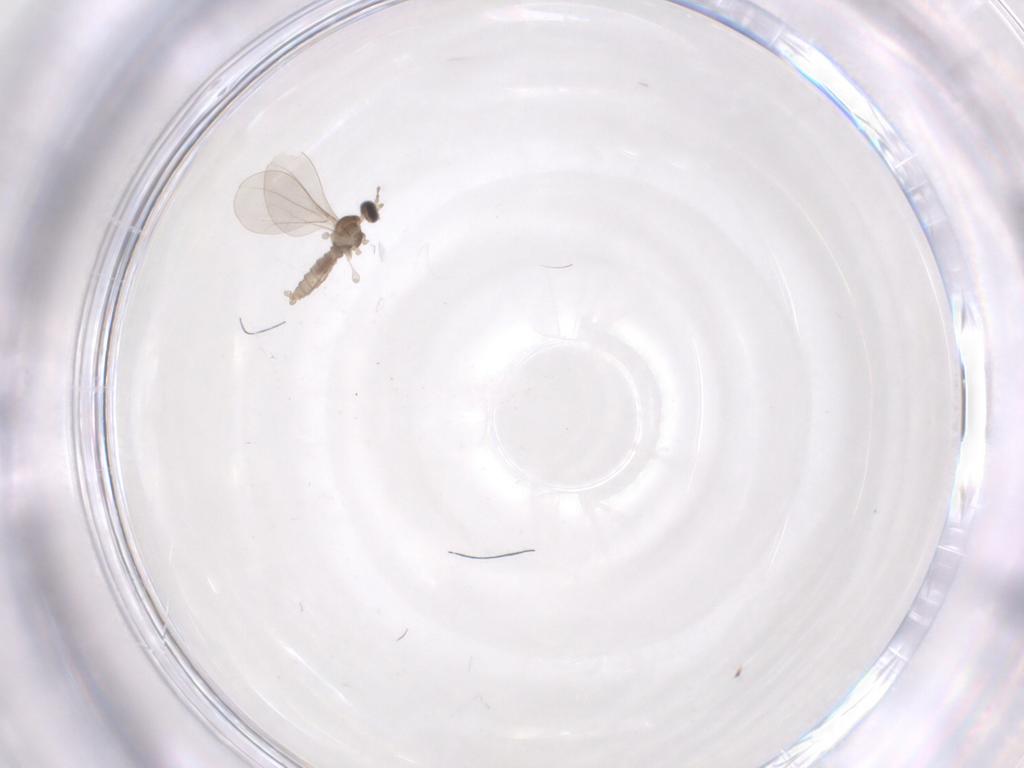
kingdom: Animalia
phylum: Arthropoda
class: Insecta
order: Diptera
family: Cecidomyiidae
